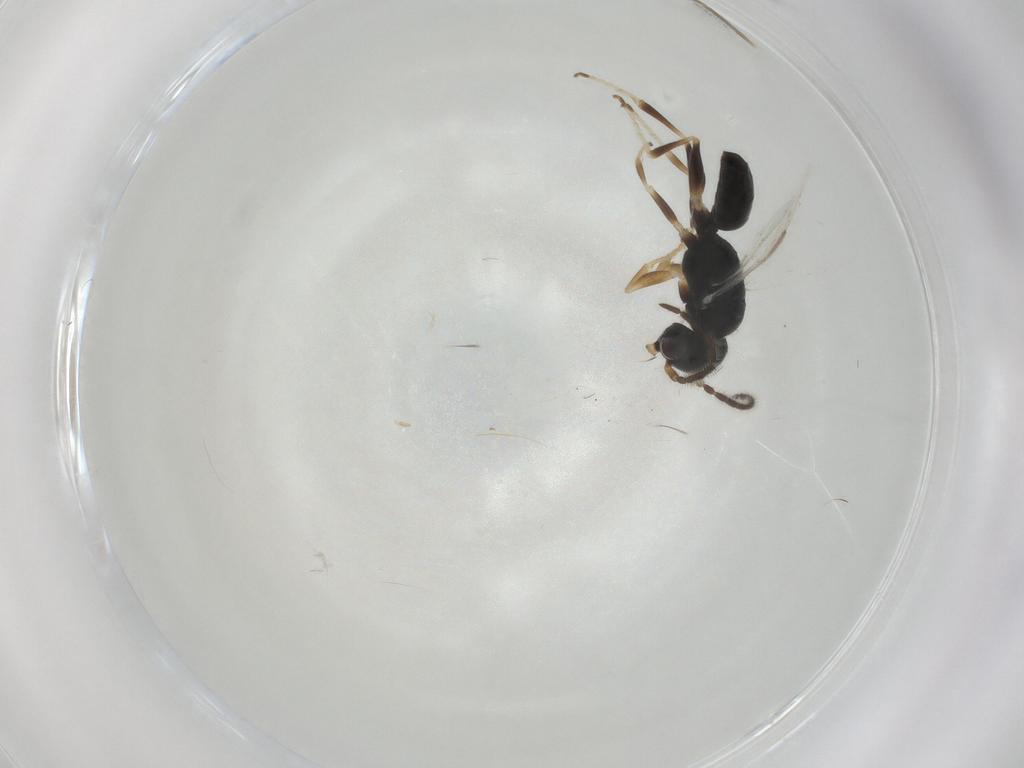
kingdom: Animalia
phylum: Arthropoda
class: Insecta
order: Hymenoptera
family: Dryinidae
